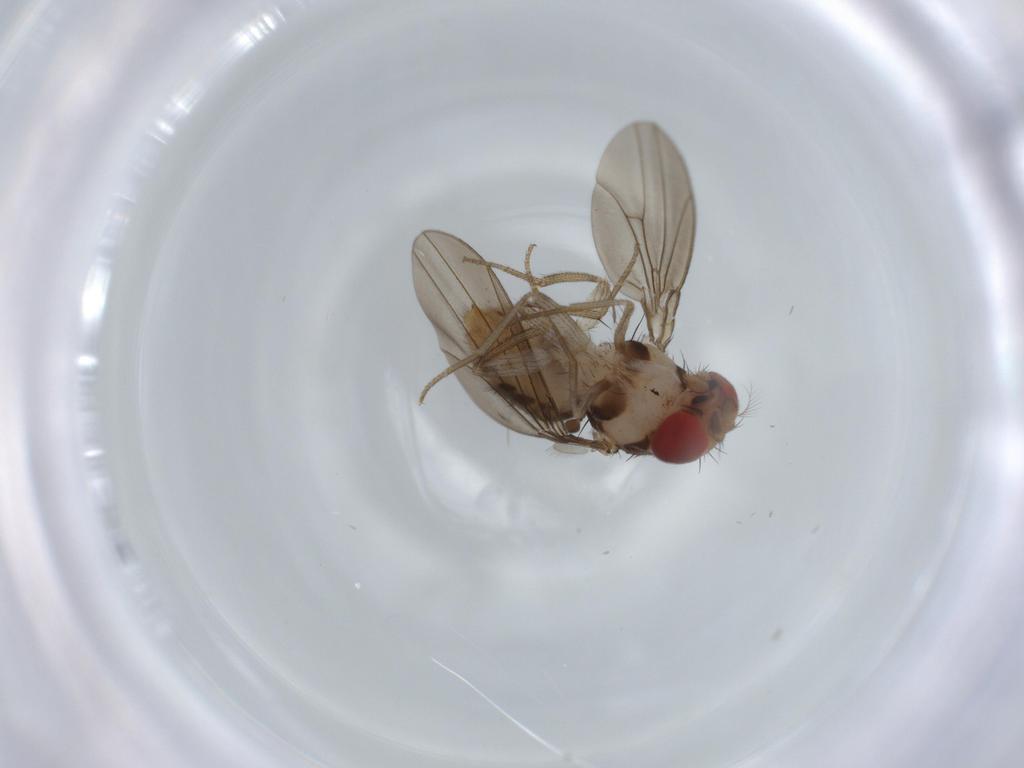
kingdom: Animalia
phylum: Arthropoda
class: Insecta
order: Diptera
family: Drosophilidae
